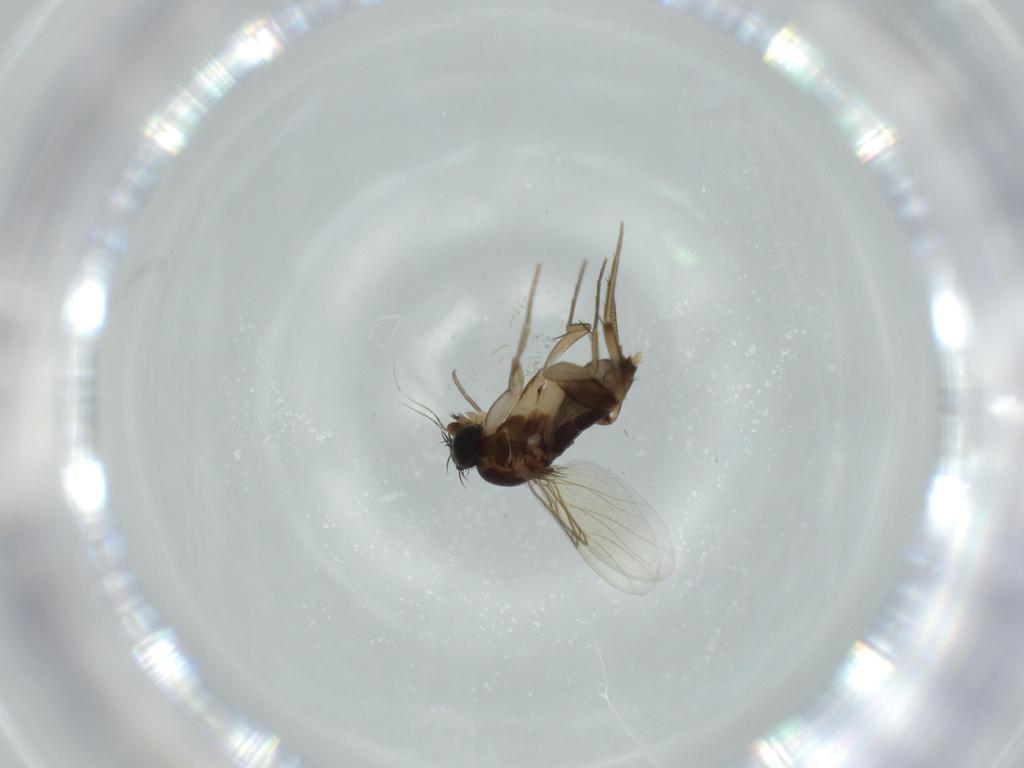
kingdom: Animalia
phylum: Arthropoda
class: Insecta
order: Diptera
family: Phoridae
